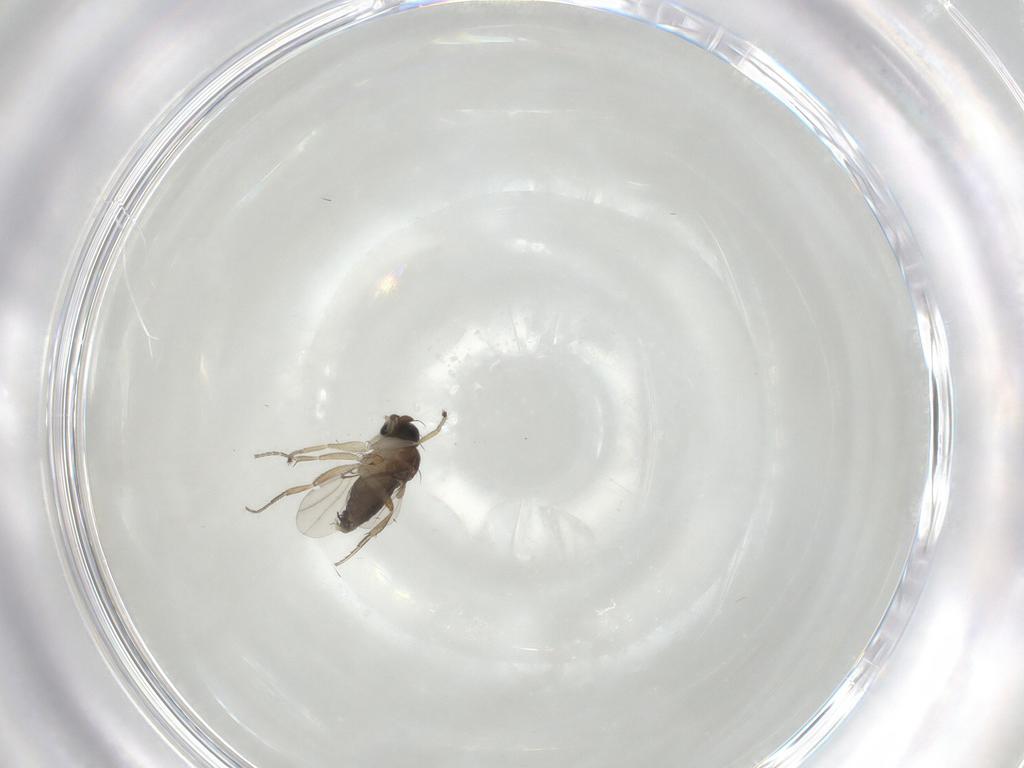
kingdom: Animalia
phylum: Arthropoda
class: Insecta
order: Diptera
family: Phoridae
